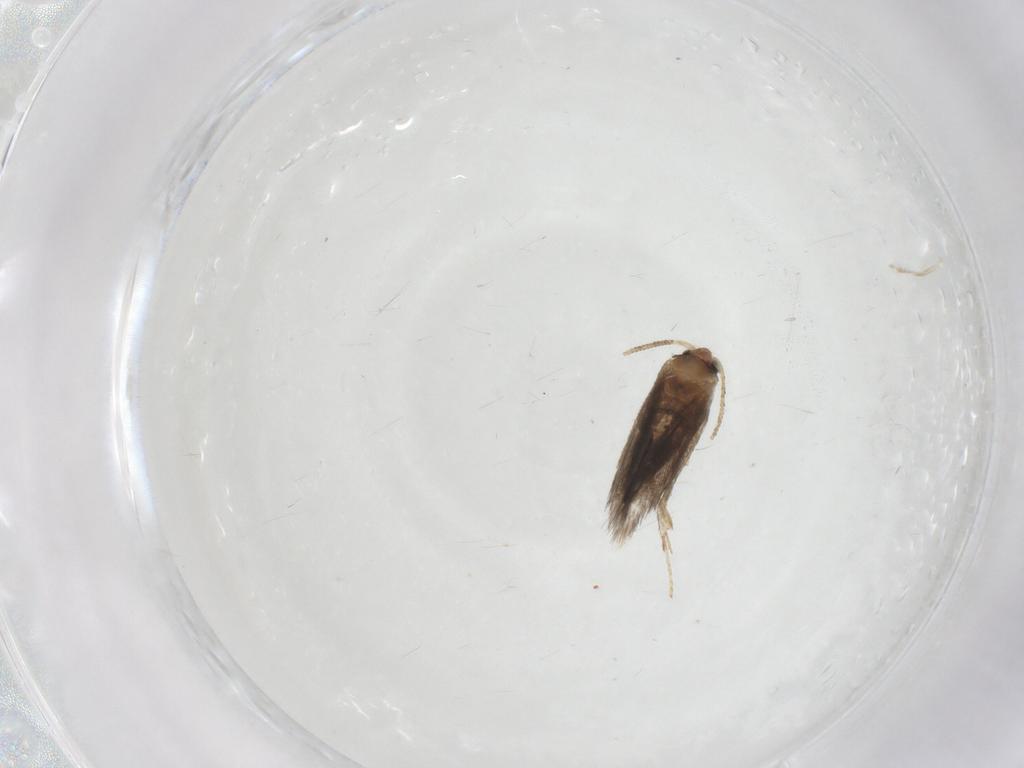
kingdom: Animalia
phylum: Arthropoda
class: Insecta
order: Lepidoptera
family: Nepticulidae
